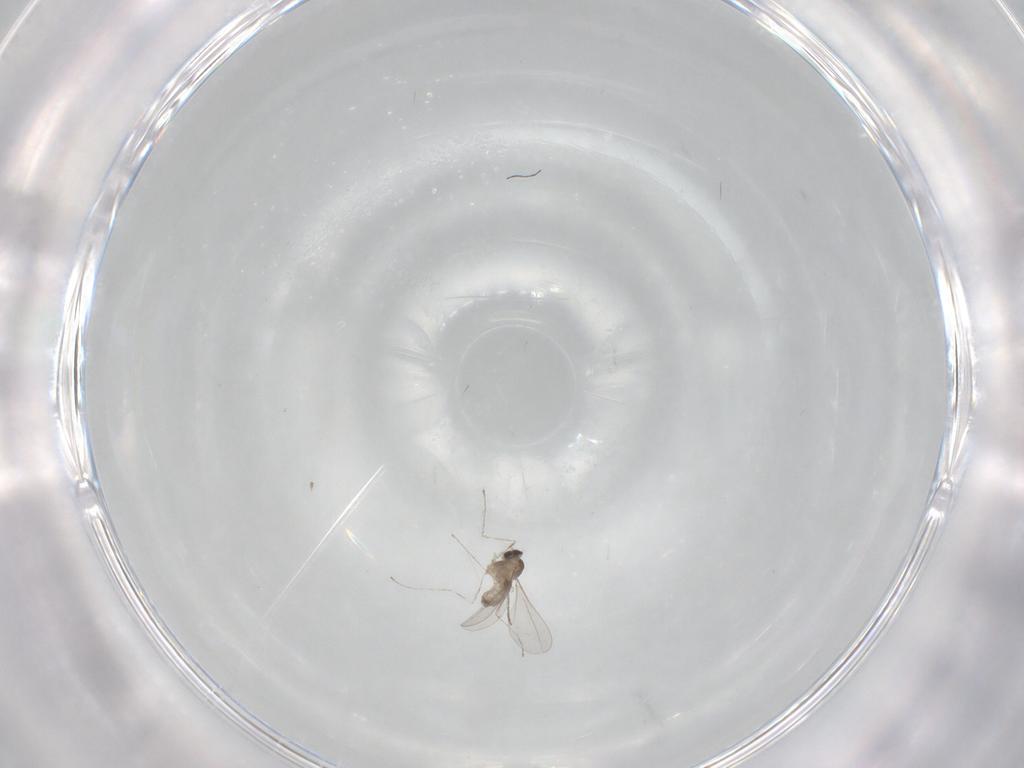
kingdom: Animalia
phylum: Arthropoda
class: Insecta
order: Diptera
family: Cecidomyiidae
